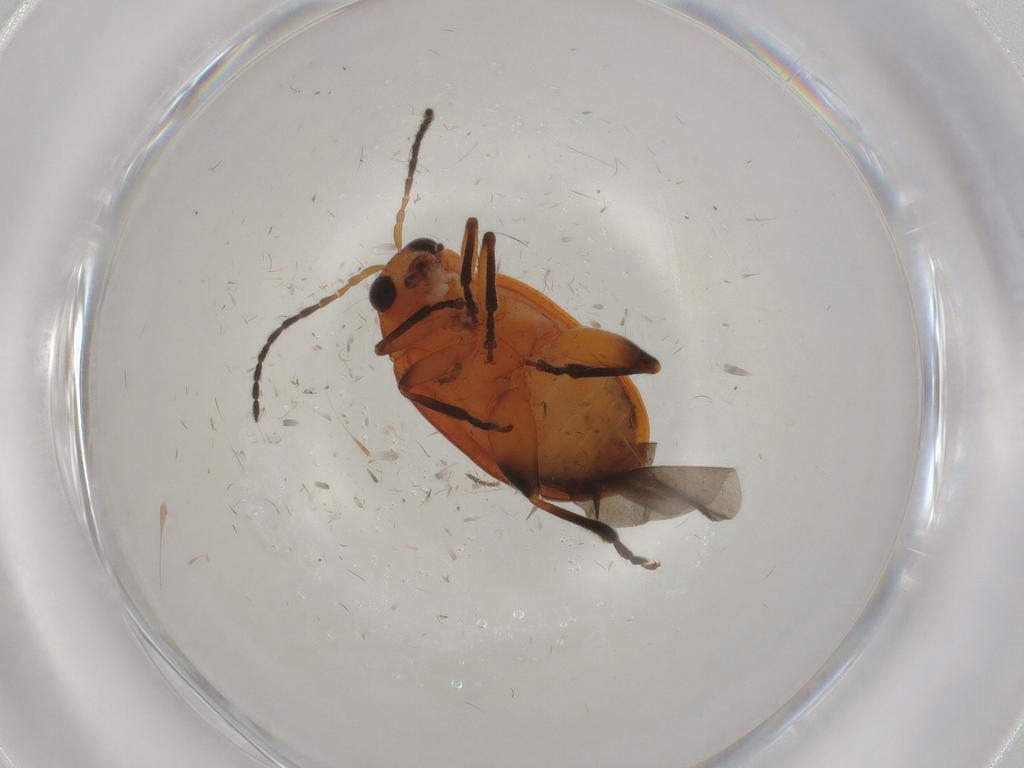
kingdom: Animalia
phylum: Arthropoda
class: Insecta
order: Coleoptera
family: Chrysomelidae
